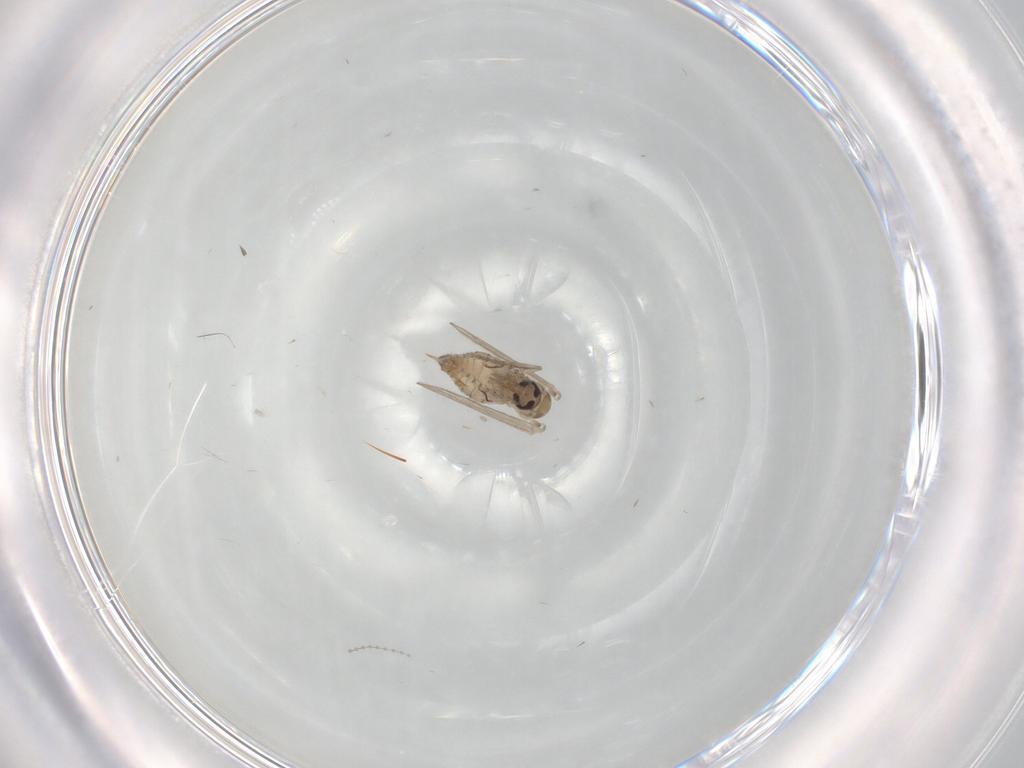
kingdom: Animalia
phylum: Arthropoda
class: Insecta
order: Diptera
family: Psychodidae
